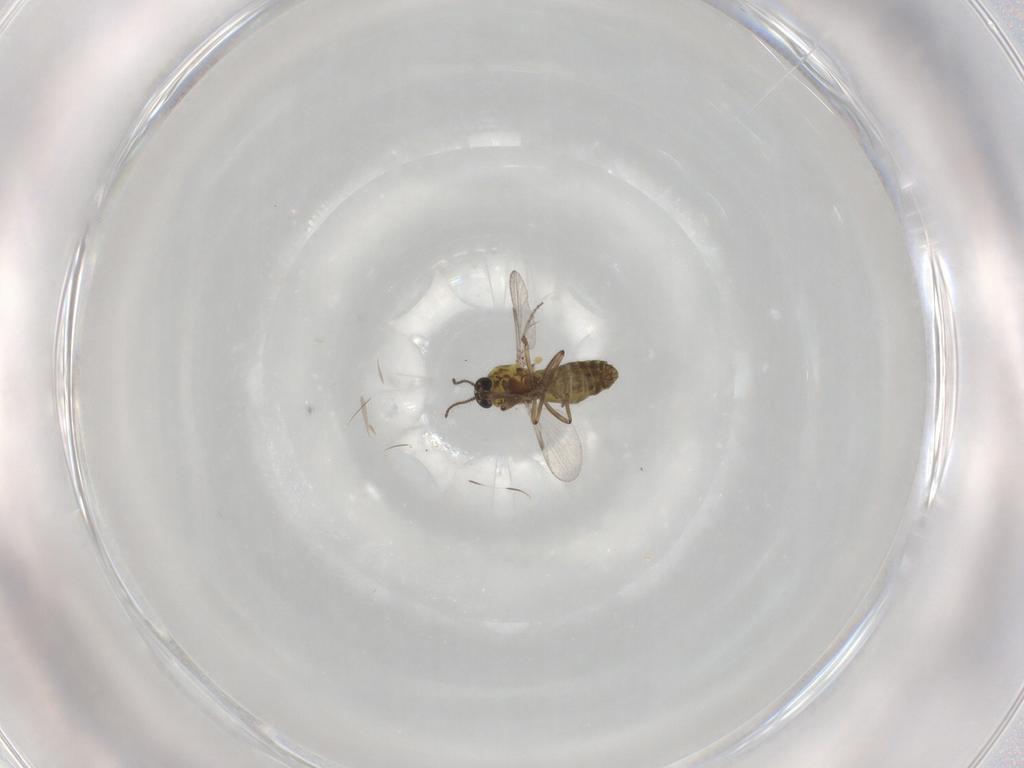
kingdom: Animalia
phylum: Arthropoda
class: Insecta
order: Diptera
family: Ceratopogonidae
